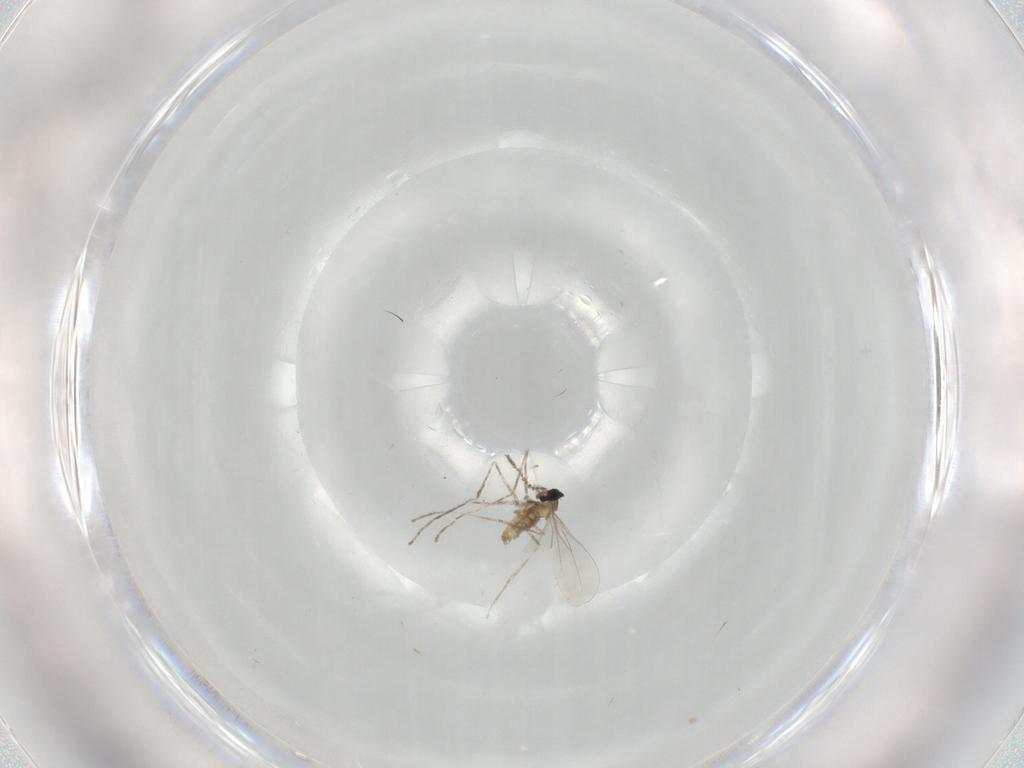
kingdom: Animalia
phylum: Arthropoda
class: Insecta
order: Diptera
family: Cecidomyiidae
